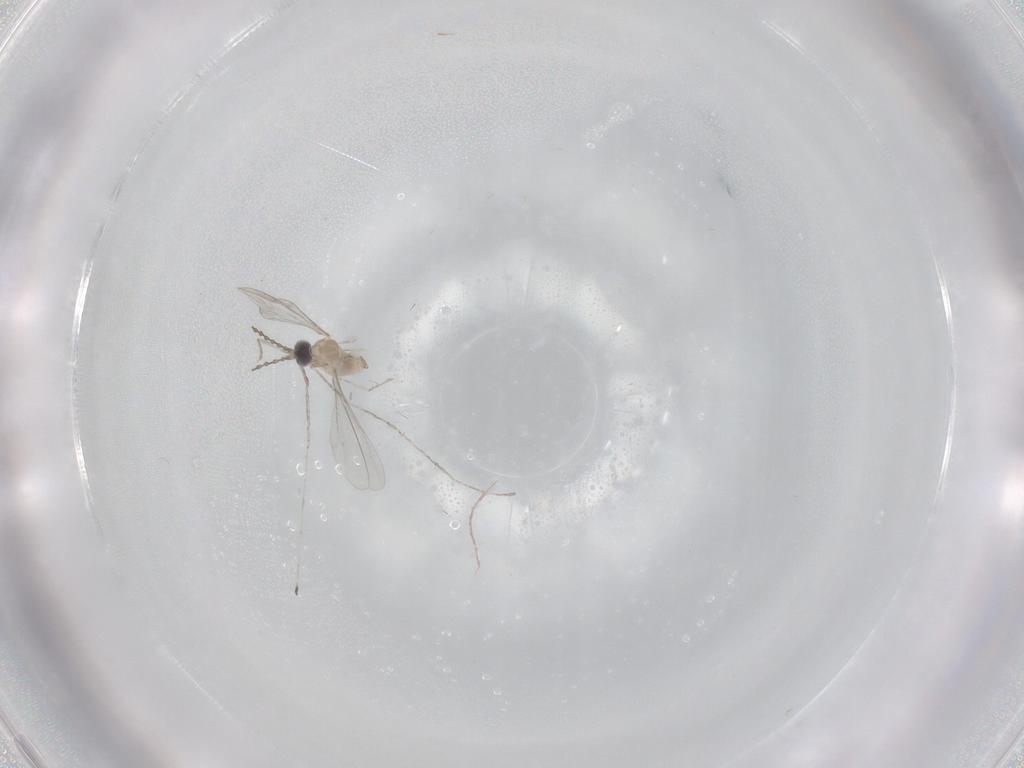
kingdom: Animalia
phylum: Arthropoda
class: Insecta
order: Diptera
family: Cecidomyiidae
